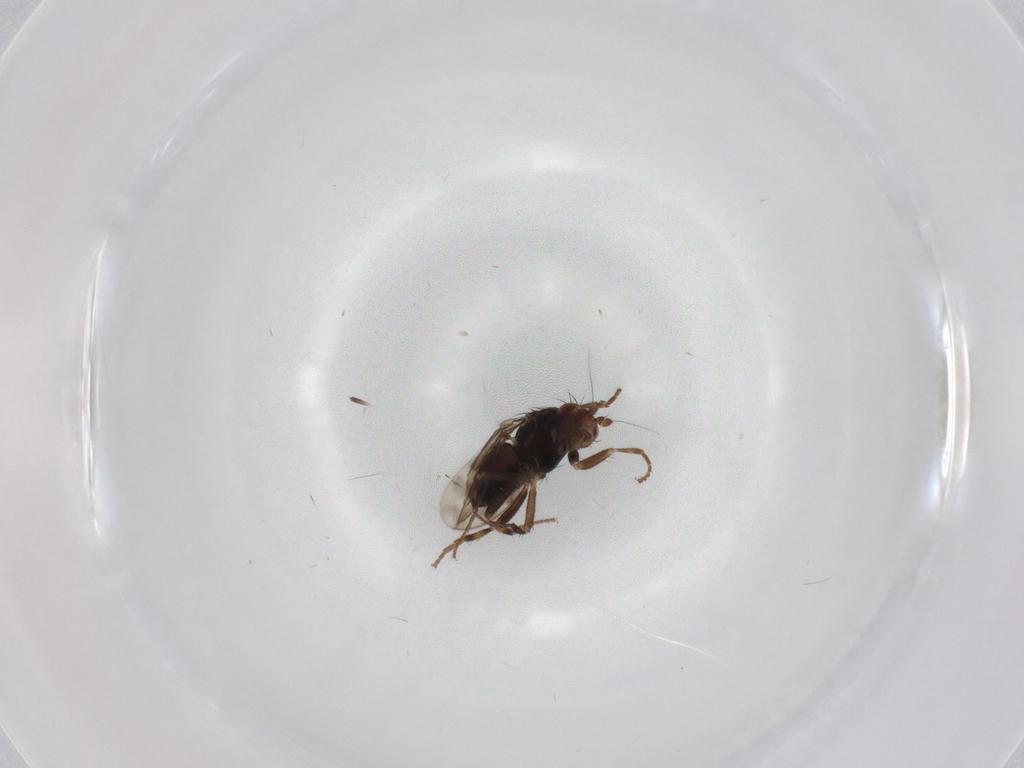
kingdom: Animalia
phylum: Arthropoda
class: Insecta
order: Diptera
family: Sphaeroceridae
